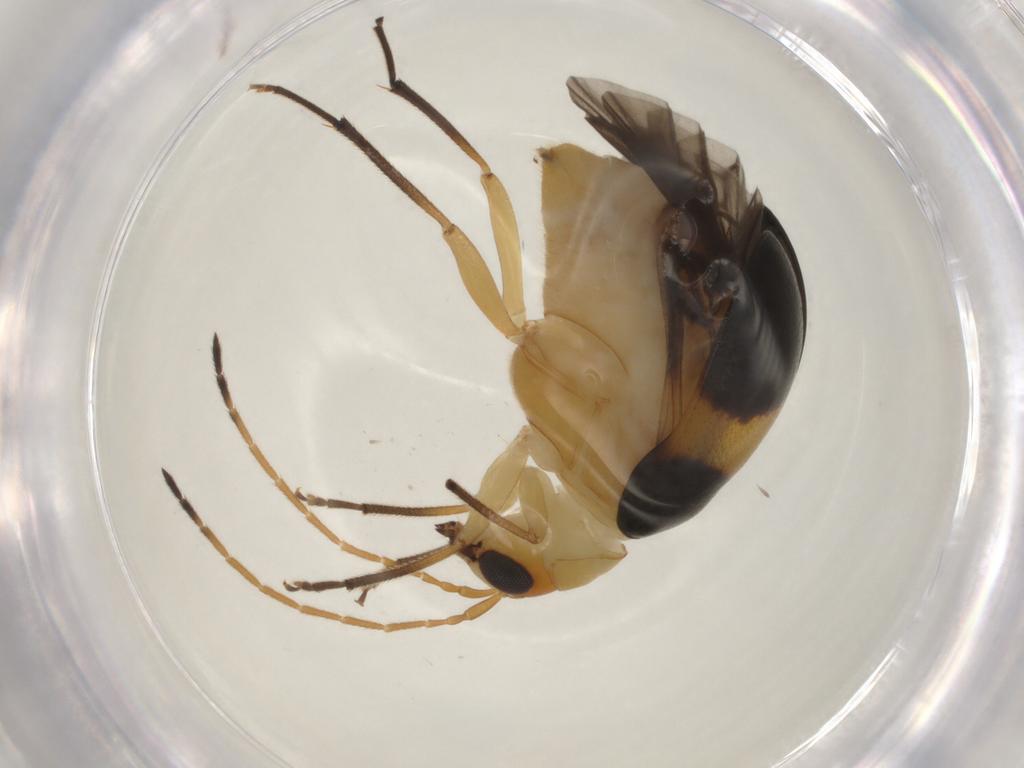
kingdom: Animalia
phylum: Arthropoda
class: Insecta
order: Coleoptera
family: Chrysomelidae
